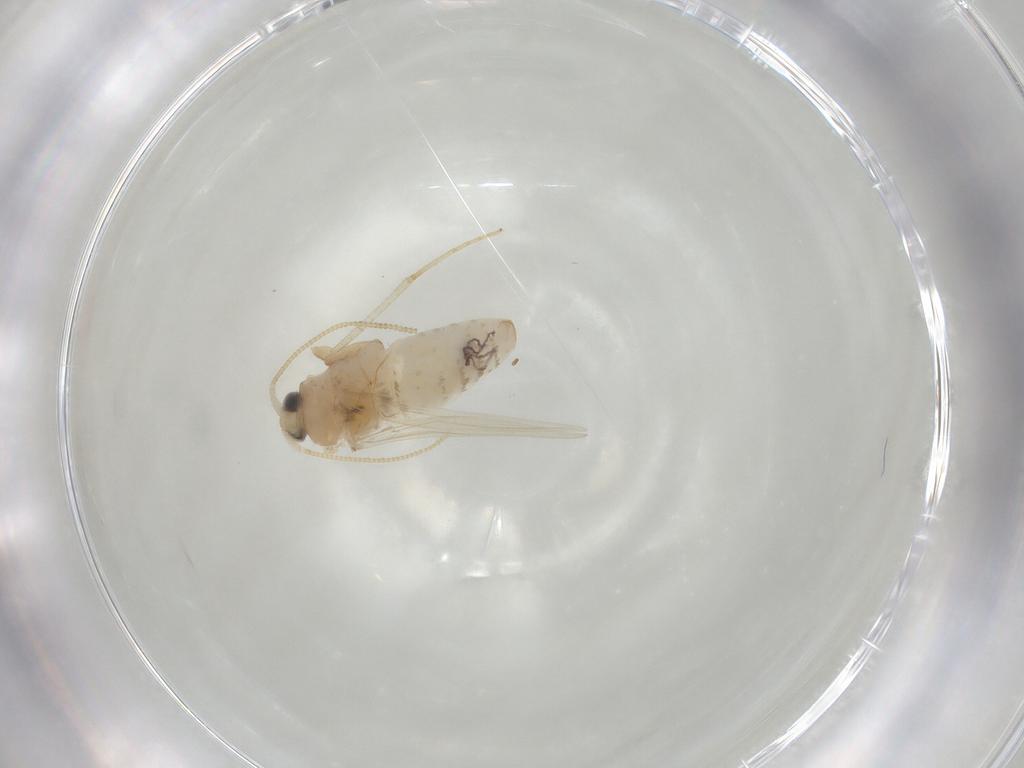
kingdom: Animalia
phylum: Arthropoda
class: Insecta
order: Lepidoptera
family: Nepticulidae
